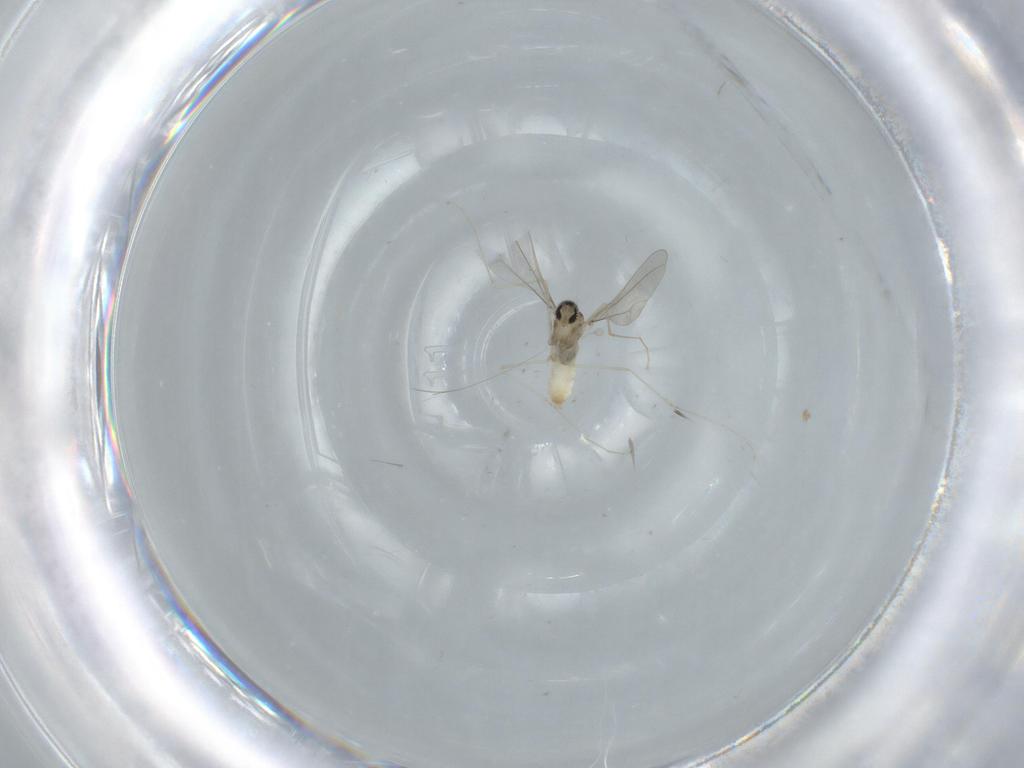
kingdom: Animalia
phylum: Arthropoda
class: Insecta
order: Diptera
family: Cecidomyiidae
